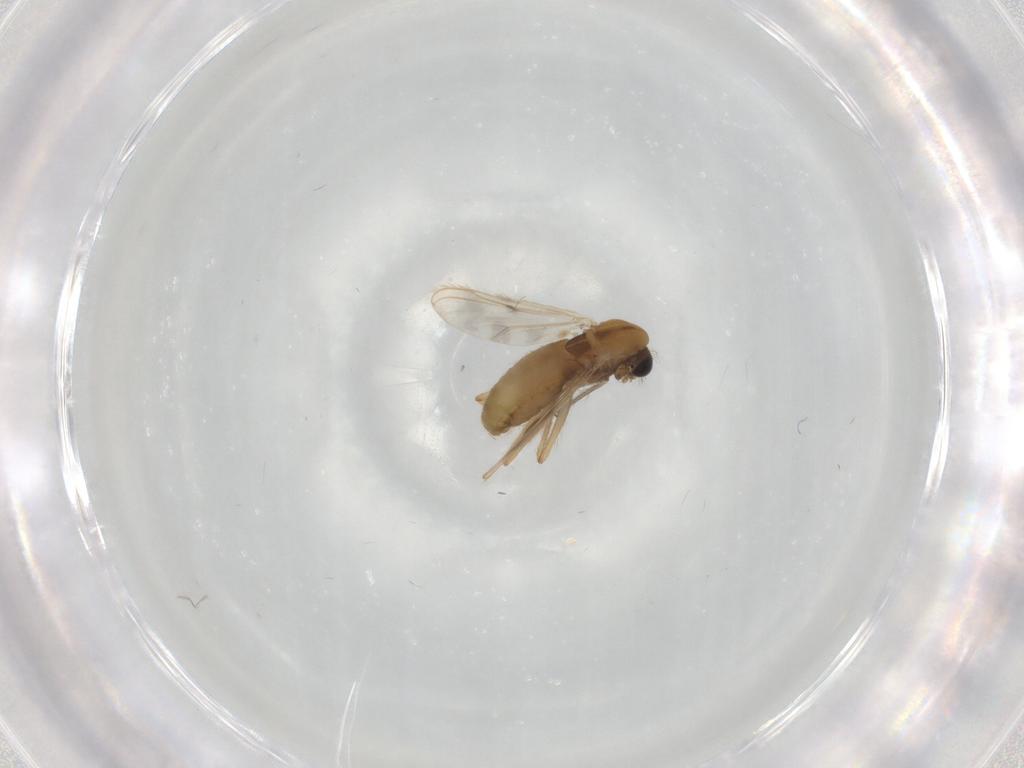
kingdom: Animalia
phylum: Arthropoda
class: Insecta
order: Diptera
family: Chironomidae
